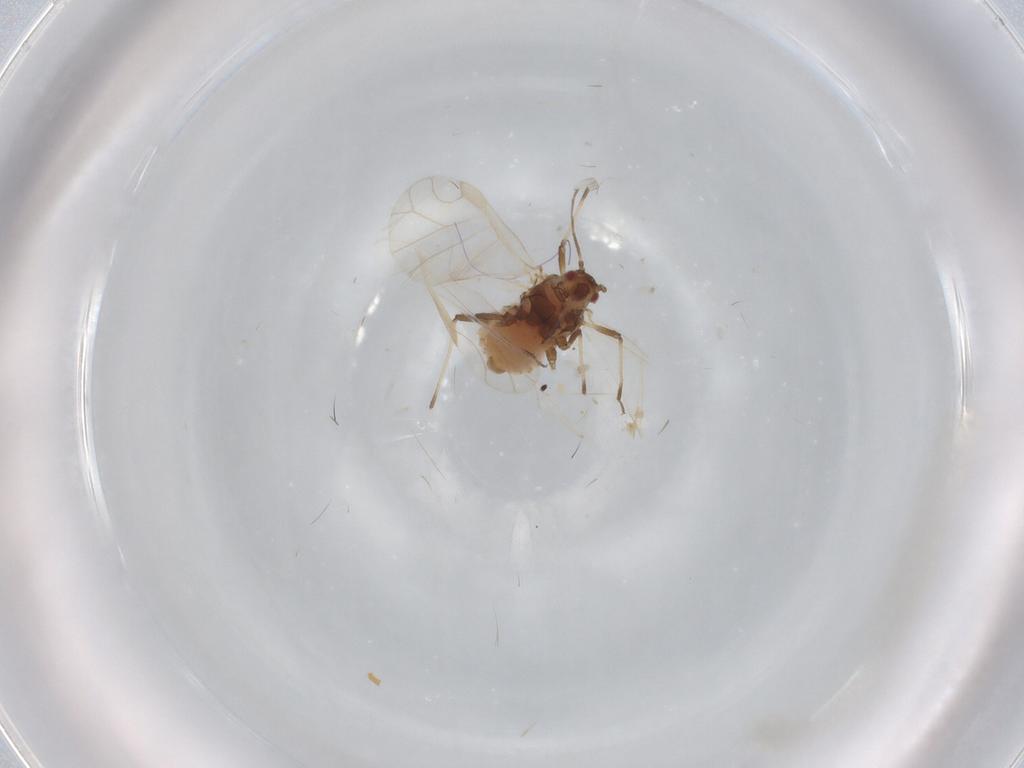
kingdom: Animalia
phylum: Arthropoda
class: Insecta
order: Hemiptera
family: Aphididae
